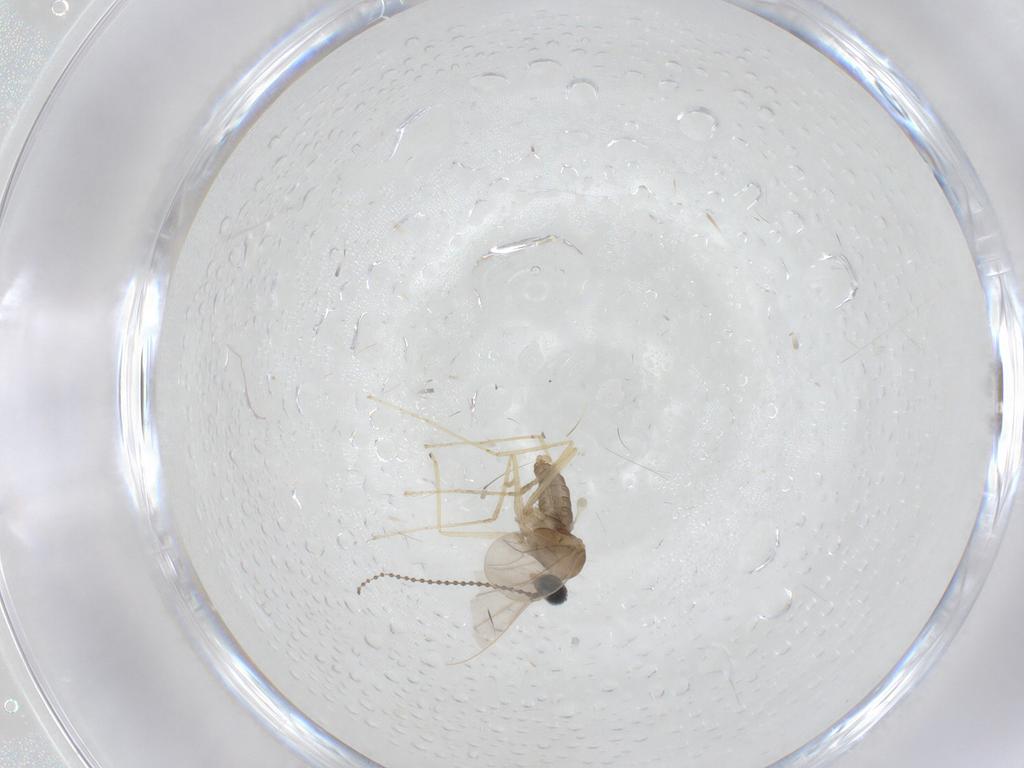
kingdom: Animalia
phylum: Arthropoda
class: Insecta
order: Diptera
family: Cecidomyiidae
